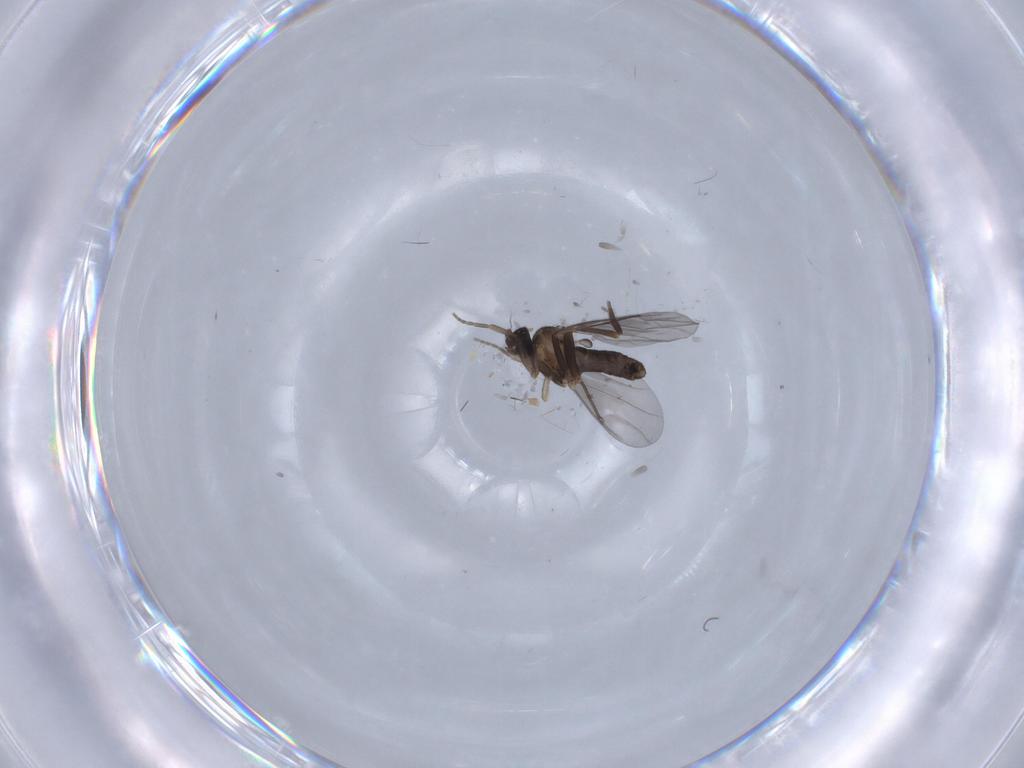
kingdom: Animalia
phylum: Arthropoda
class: Insecta
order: Diptera
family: Phoridae
